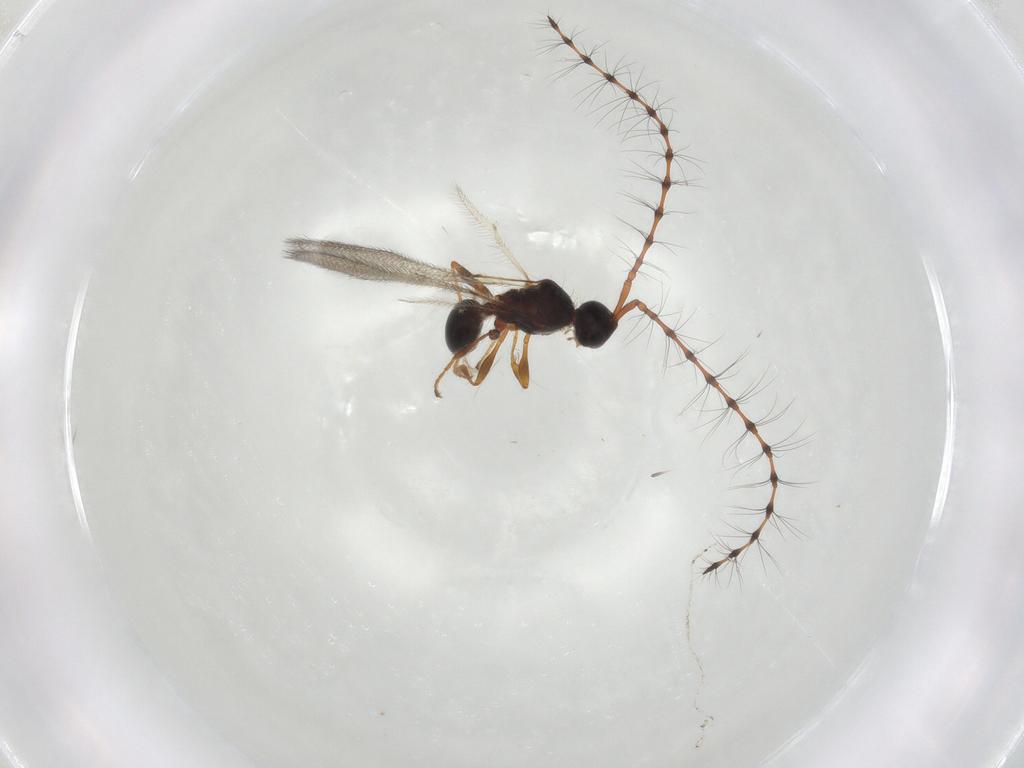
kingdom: Animalia
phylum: Arthropoda
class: Insecta
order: Hymenoptera
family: Diapriidae
